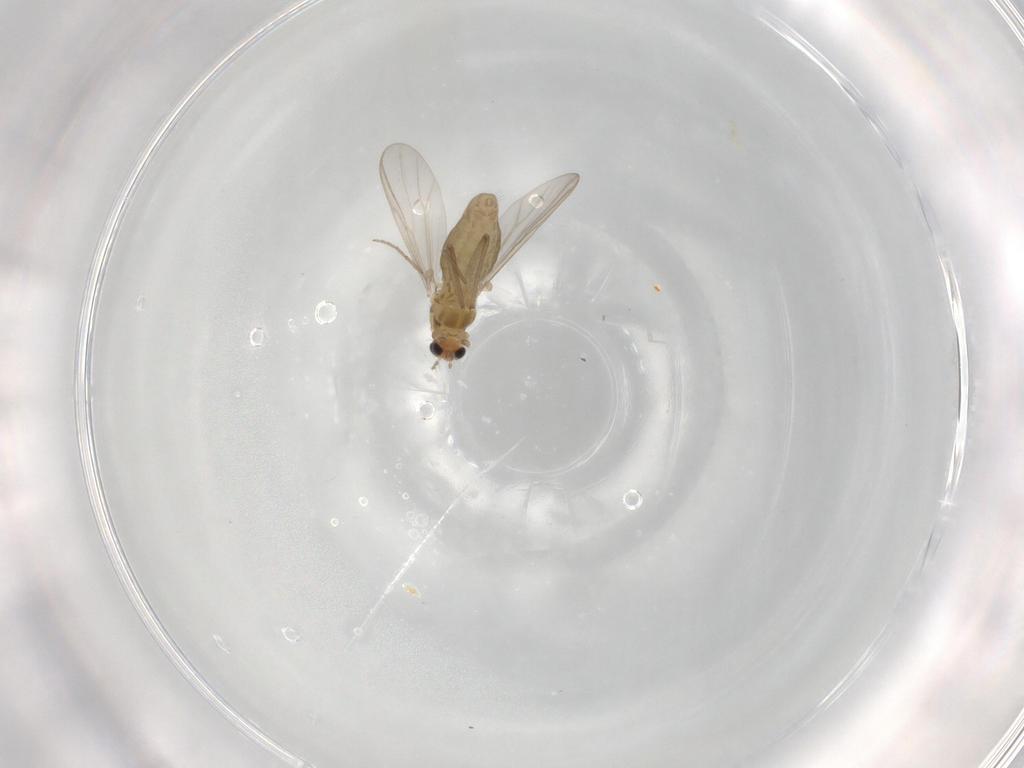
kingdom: Animalia
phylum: Arthropoda
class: Insecta
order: Diptera
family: Chironomidae
